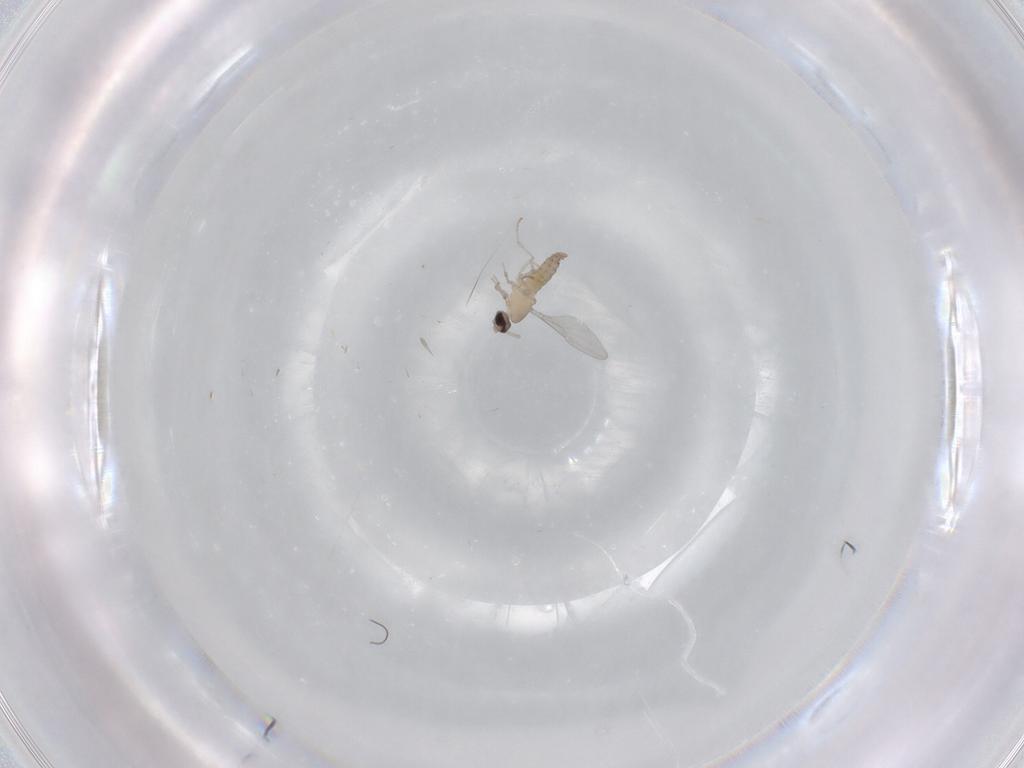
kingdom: Animalia
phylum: Arthropoda
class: Insecta
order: Diptera
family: Cecidomyiidae
